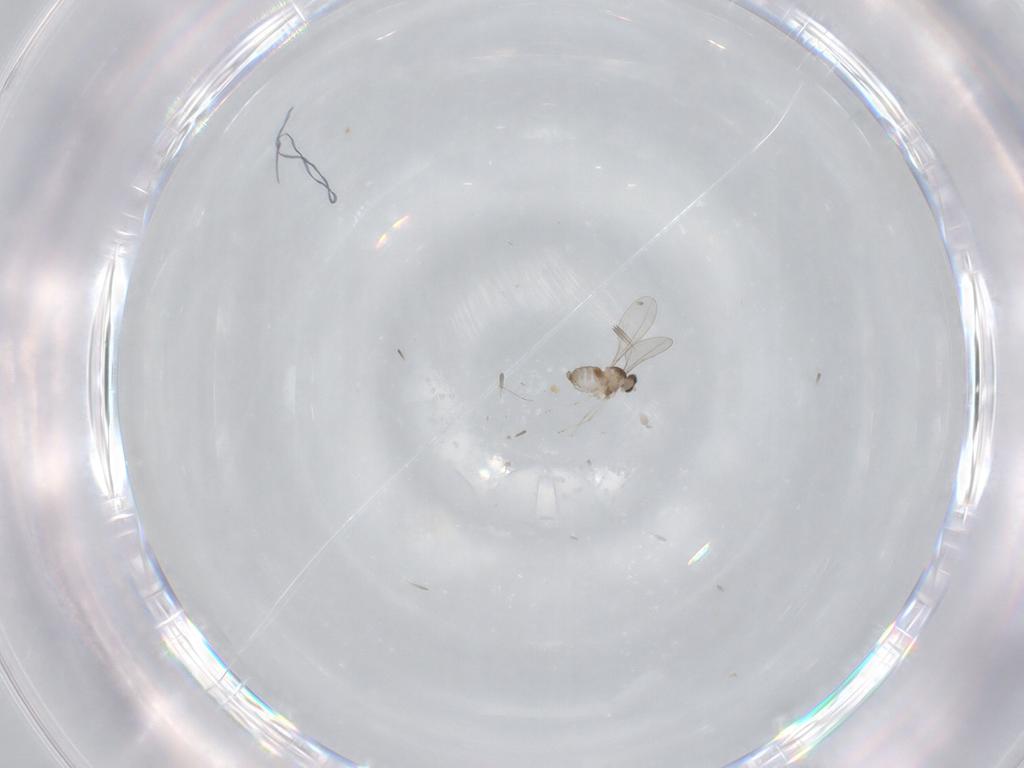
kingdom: Animalia
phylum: Arthropoda
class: Insecta
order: Diptera
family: Cecidomyiidae
